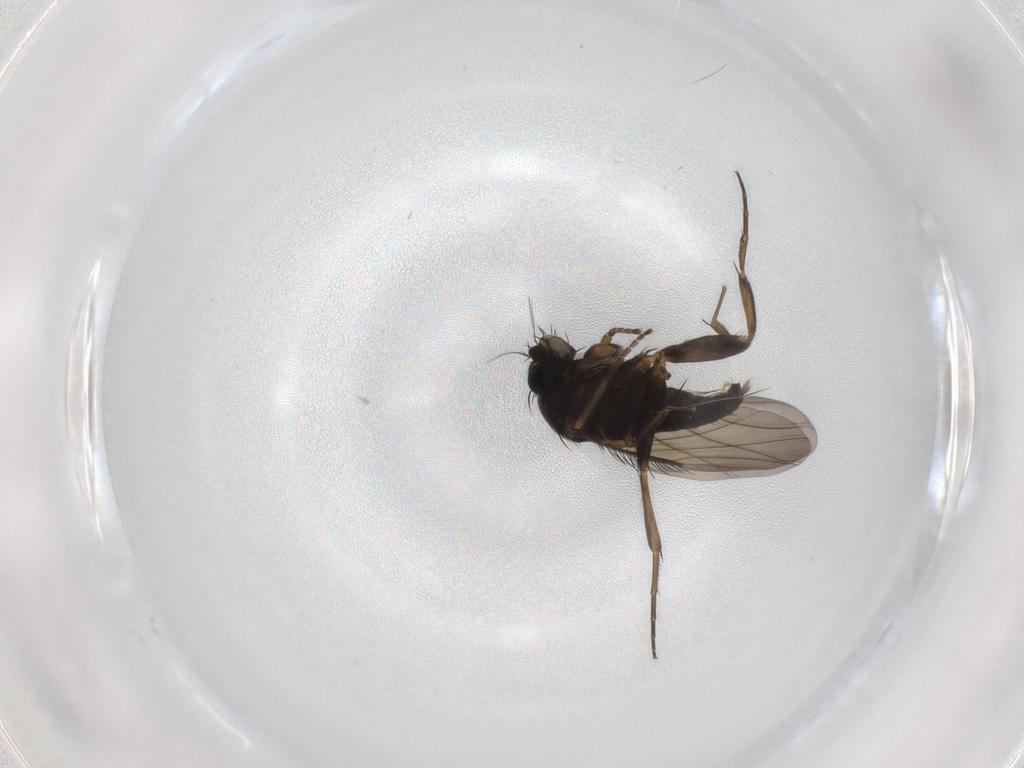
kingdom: Animalia
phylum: Arthropoda
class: Insecta
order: Diptera
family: Phoridae
